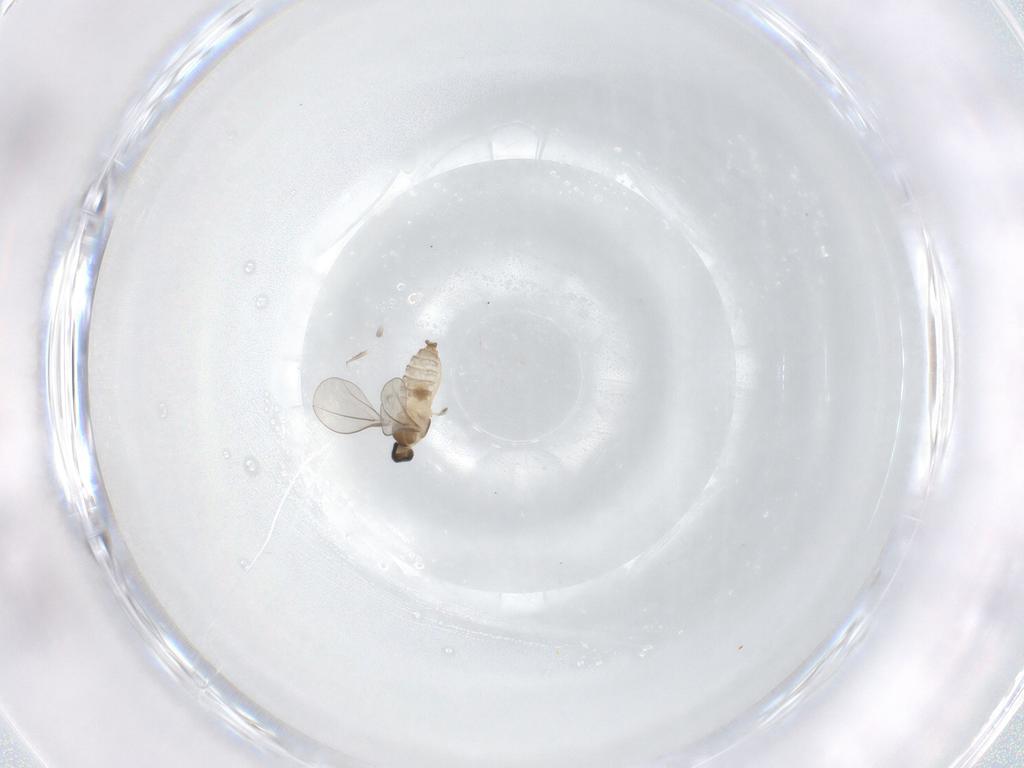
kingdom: Animalia
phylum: Arthropoda
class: Insecta
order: Diptera
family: Cecidomyiidae
